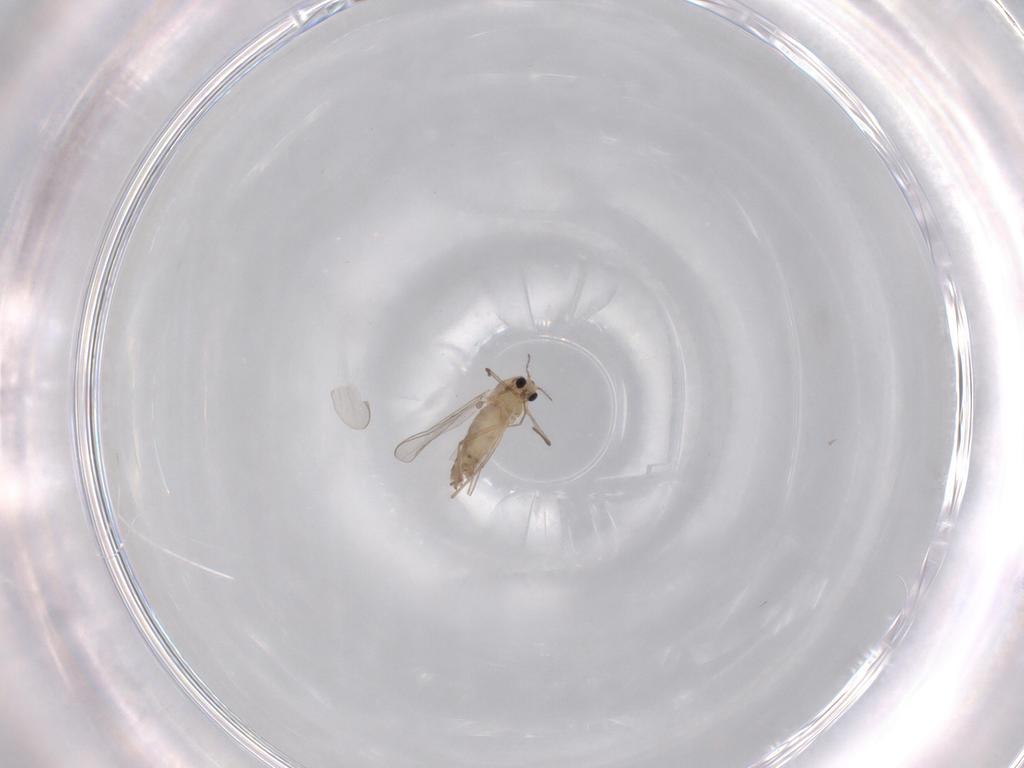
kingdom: Animalia
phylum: Arthropoda
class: Insecta
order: Diptera
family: Chironomidae
